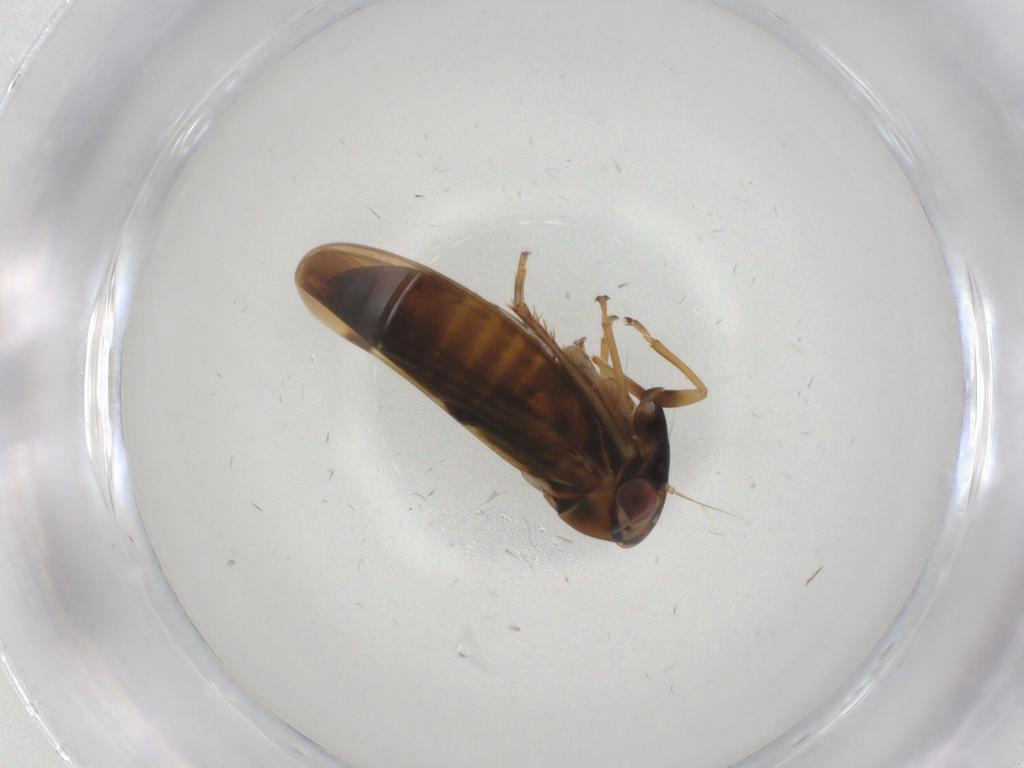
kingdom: Animalia
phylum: Arthropoda
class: Insecta
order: Hemiptera
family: Cicadellidae
